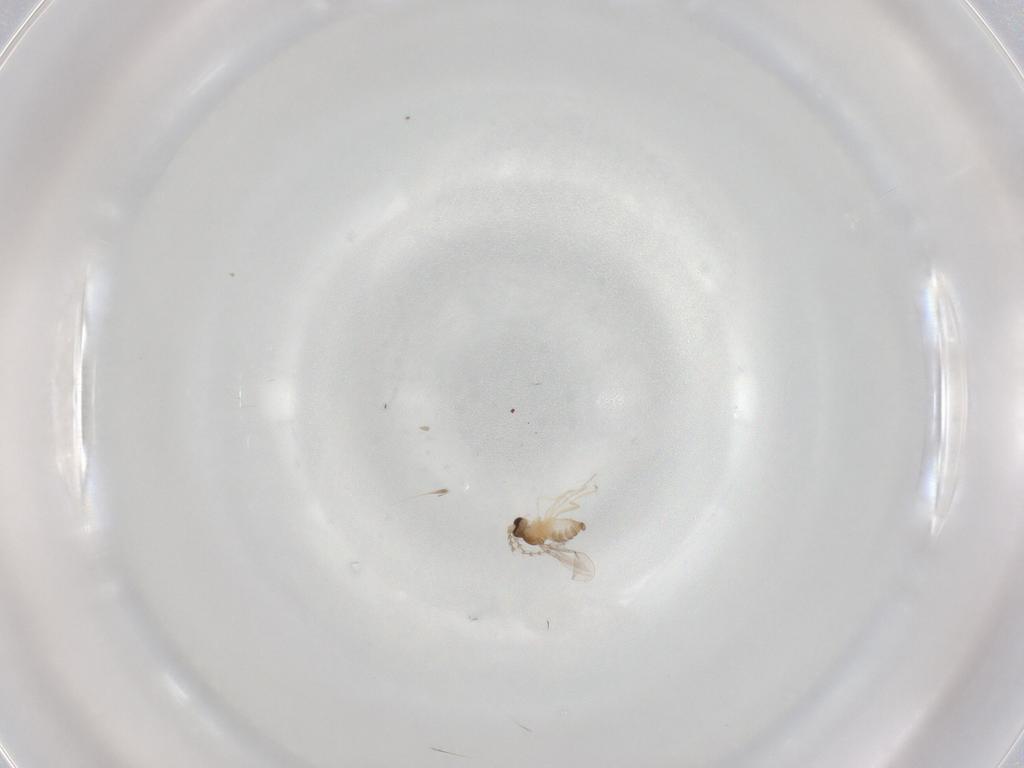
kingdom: Animalia
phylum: Arthropoda
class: Insecta
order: Diptera
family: Cecidomyiidae
